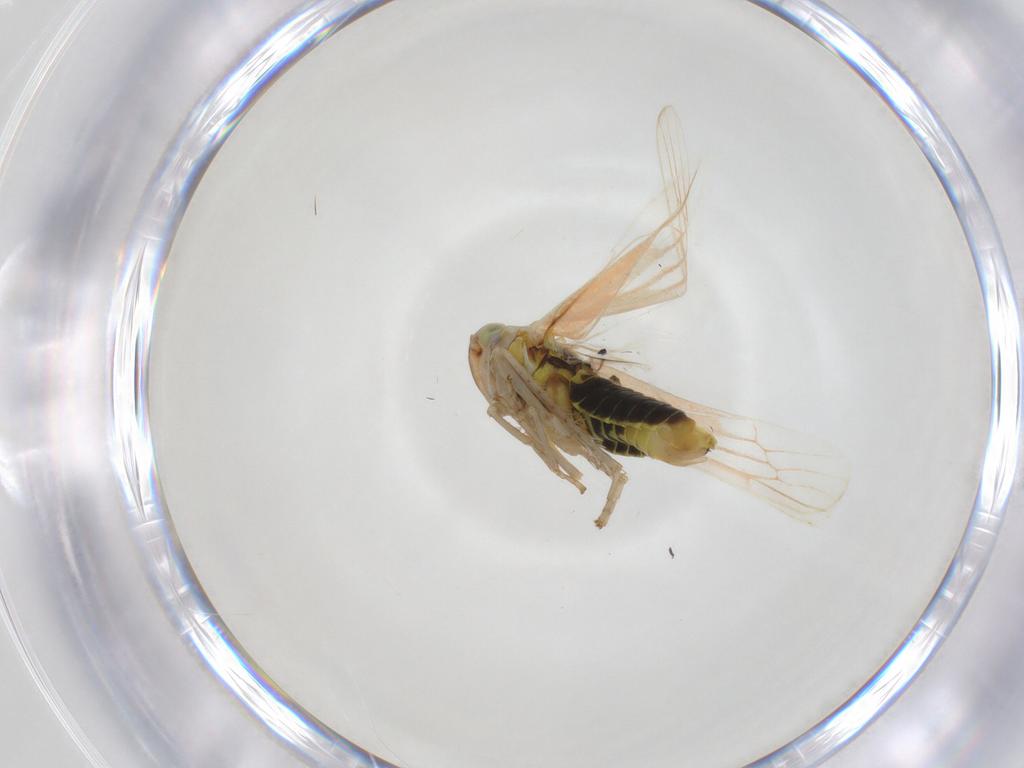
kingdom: Animalia
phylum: Arthropoda
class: Insecta
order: Hemiptera
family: Cicadellidae
